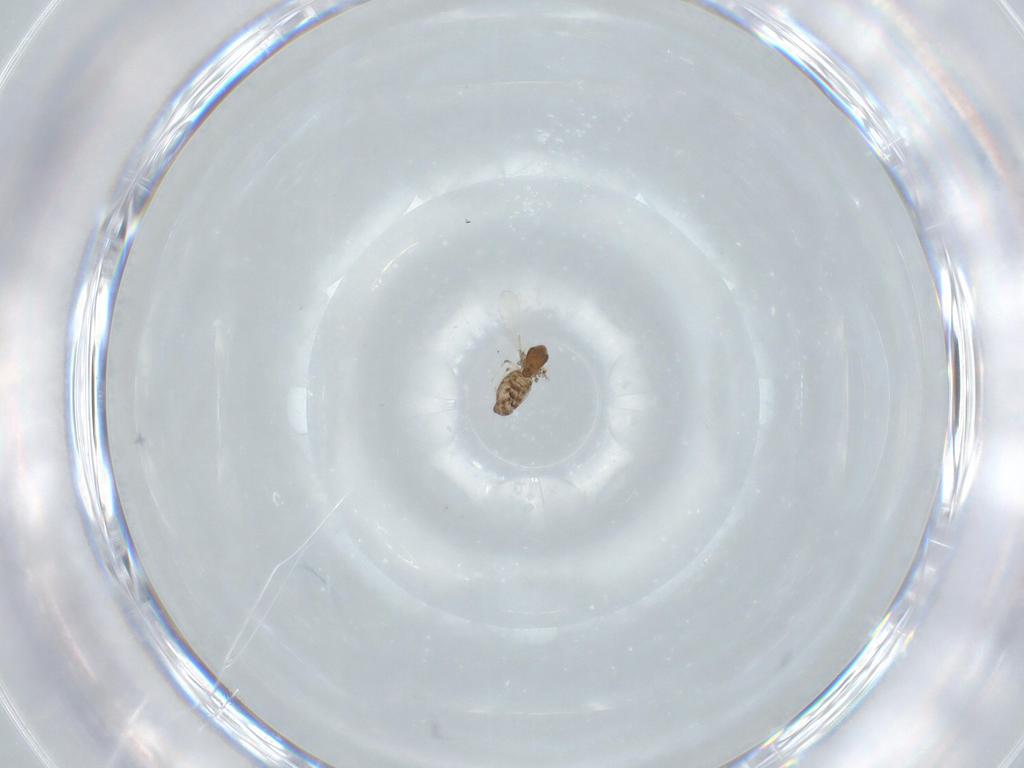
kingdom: Animalia
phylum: Arthropoda
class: Insecta
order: Diptera
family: Chironomidae
